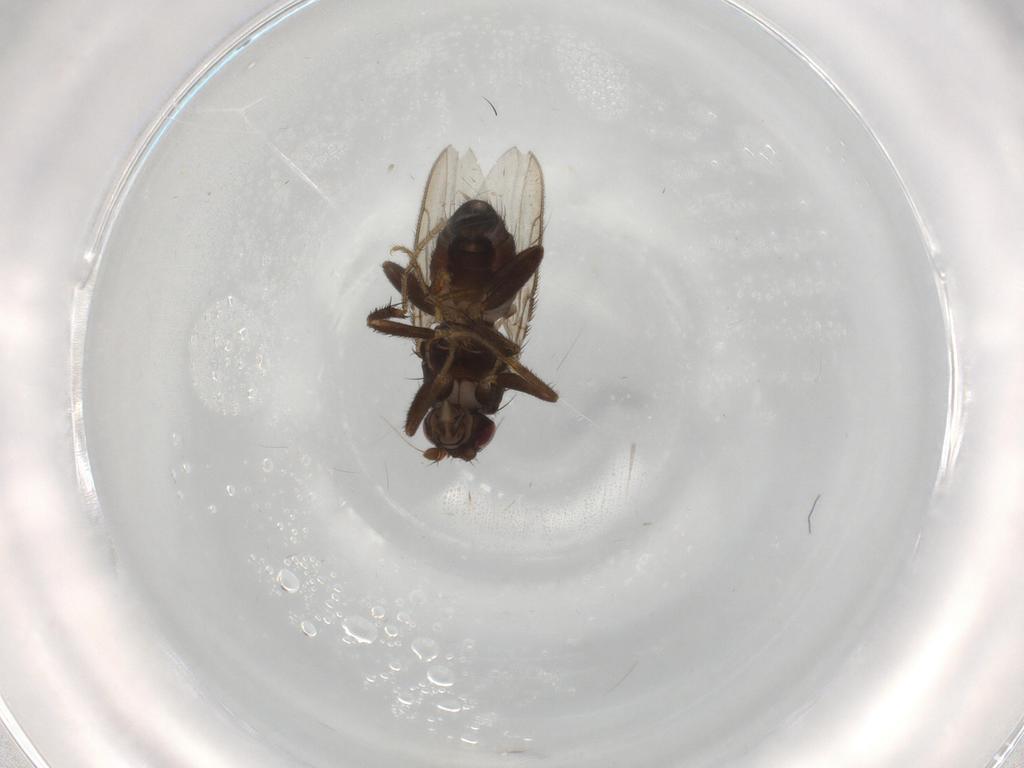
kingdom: Animalia
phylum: Arthropoda
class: Insecta
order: Diptera
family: Sphaeroceridae
